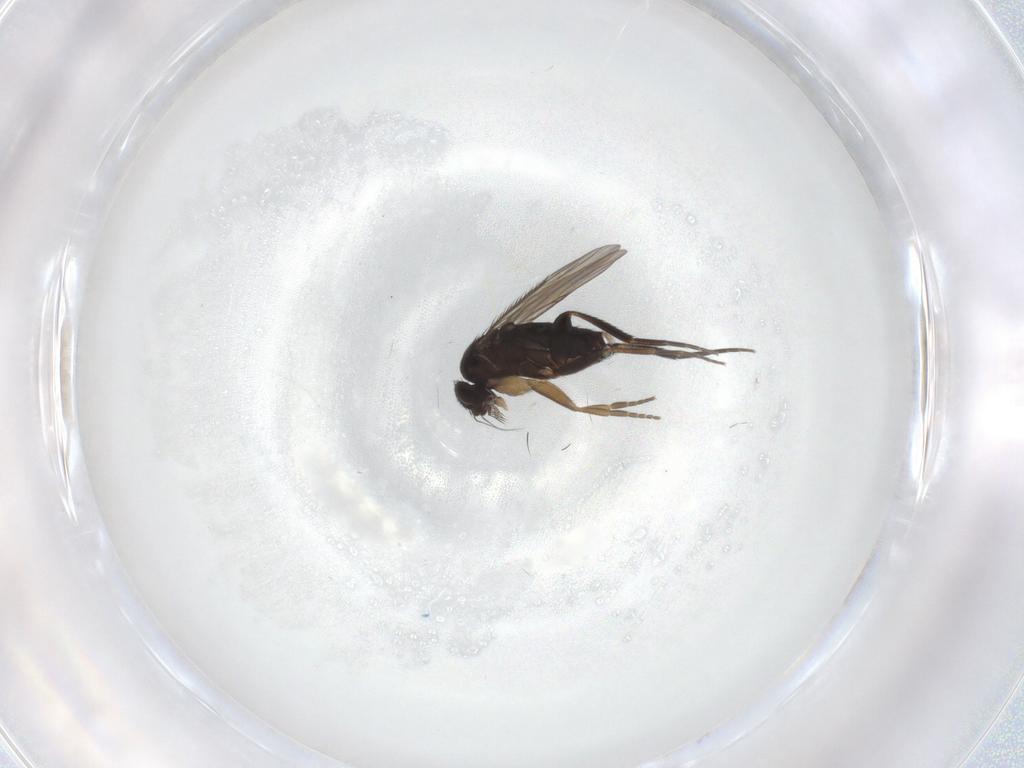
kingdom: Animalia
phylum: Arthropoda
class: Insecta
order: Diptera
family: Phoridae
